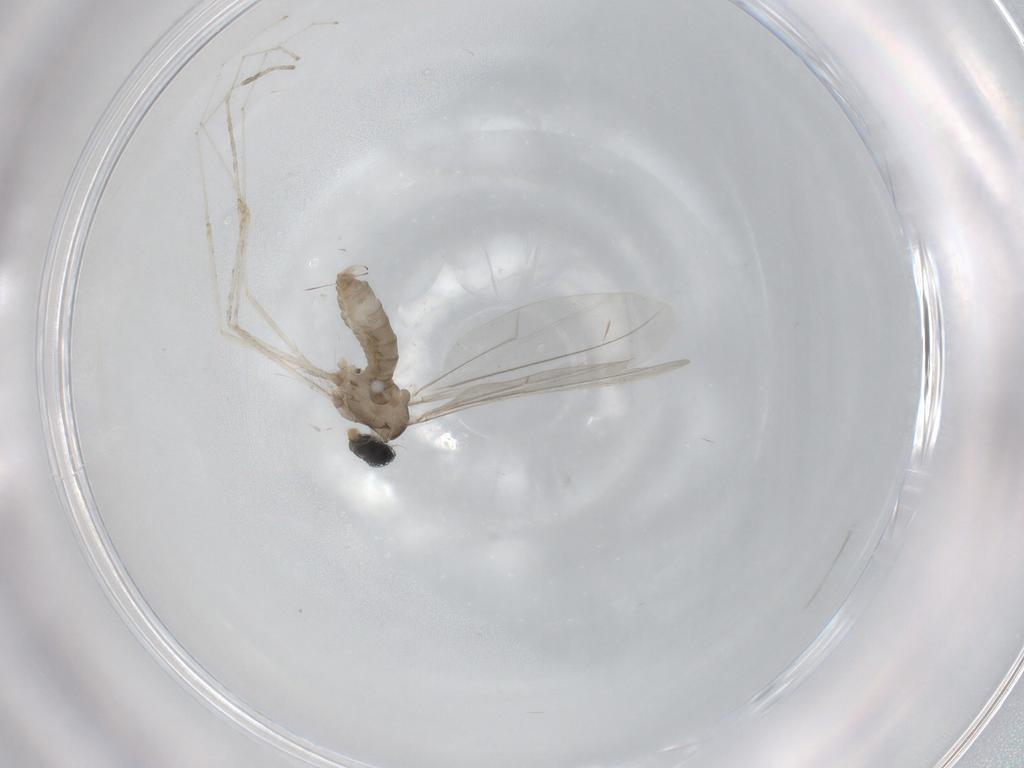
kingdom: Animalia
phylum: Arthropoda
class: Insecta
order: Diptera
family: Cecidomyiidae
